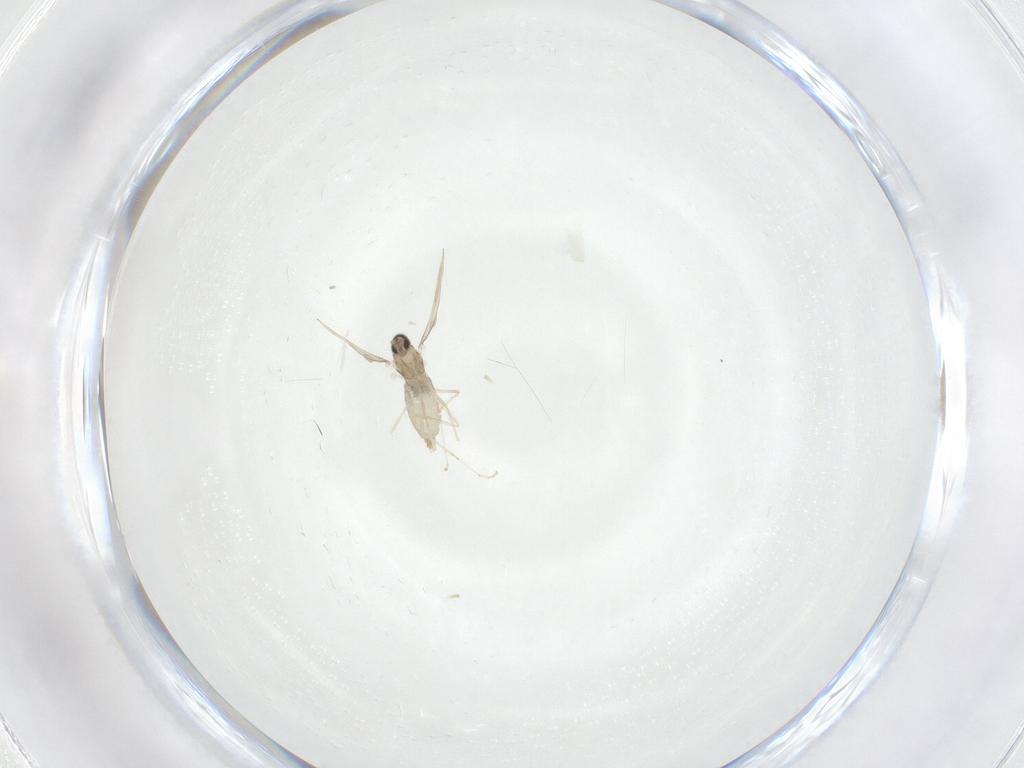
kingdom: Animalia
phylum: Arthropoda
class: Insecta
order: Diptera
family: Cecidomyiidae
